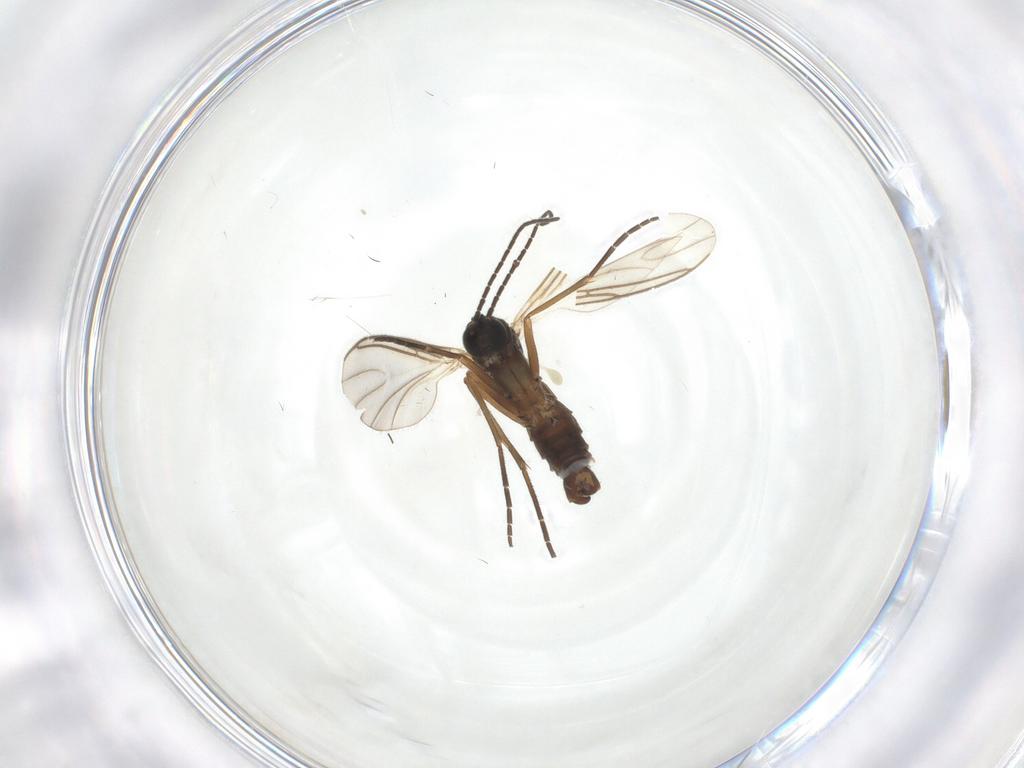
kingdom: Animalia
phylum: Arthropoda
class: Insecta
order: Diptera
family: Sciaridae
